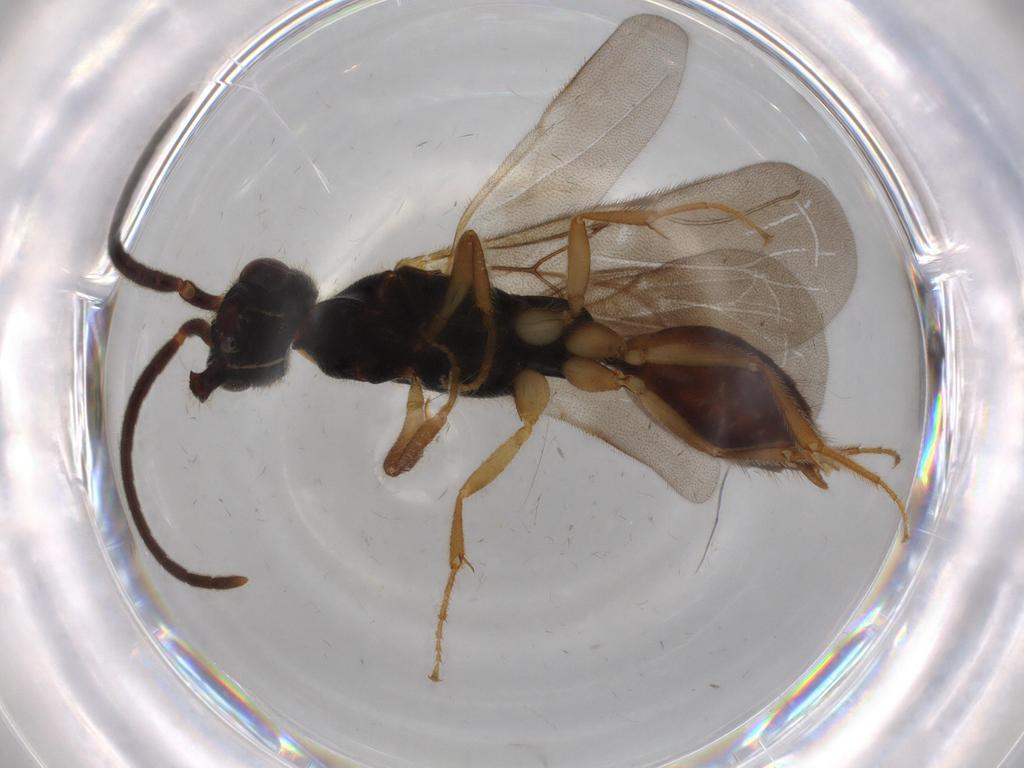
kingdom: Animalia
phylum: Arthropoda
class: Insecta
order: Hymenoptera
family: Bethylidae
